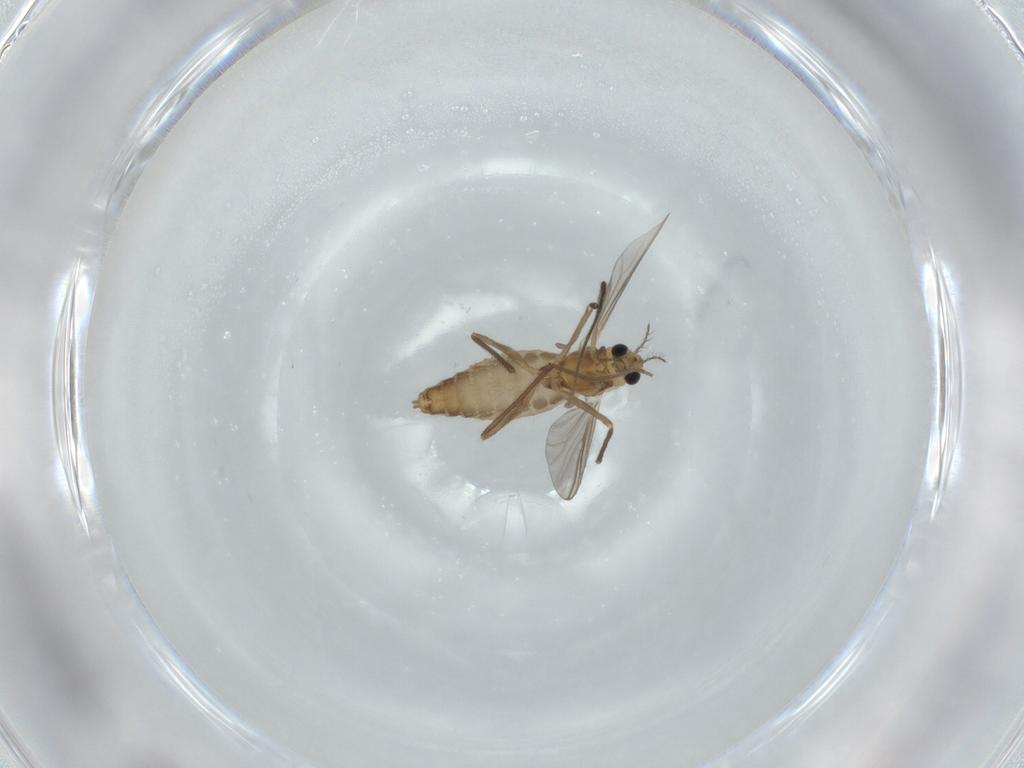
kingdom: Animalia
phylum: Arthropoda
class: Insecta
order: Diptera
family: Chironomidae
